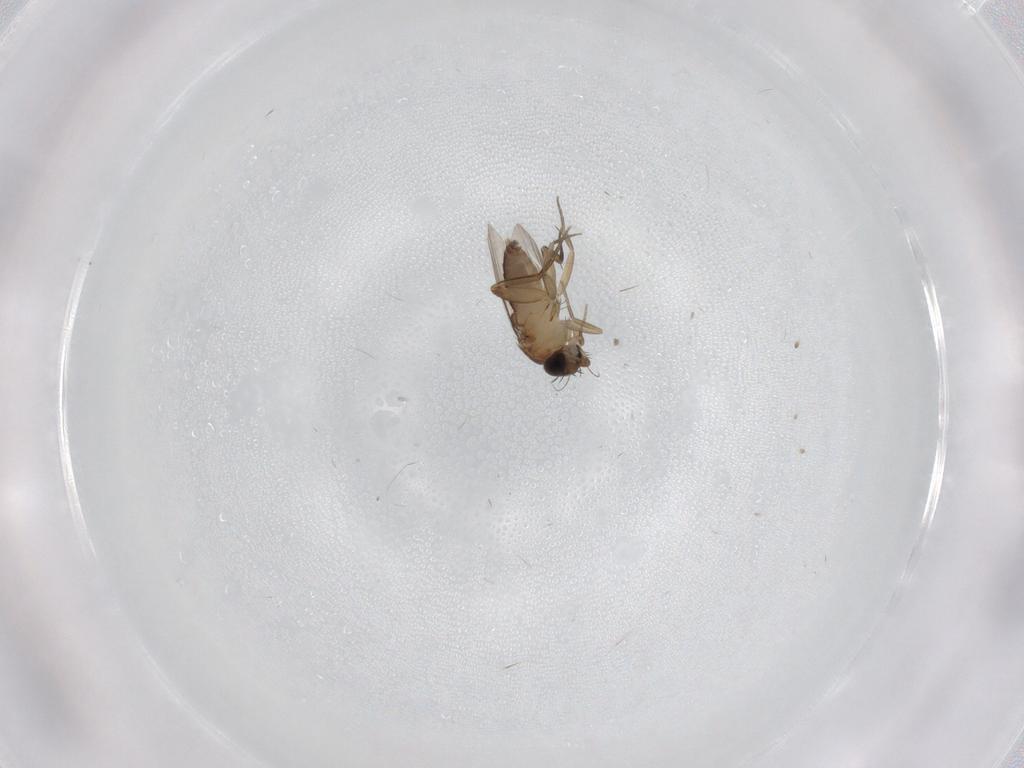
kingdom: Animalia
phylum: Arthropoda
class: Insecta
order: Diptera
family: Phoridae
